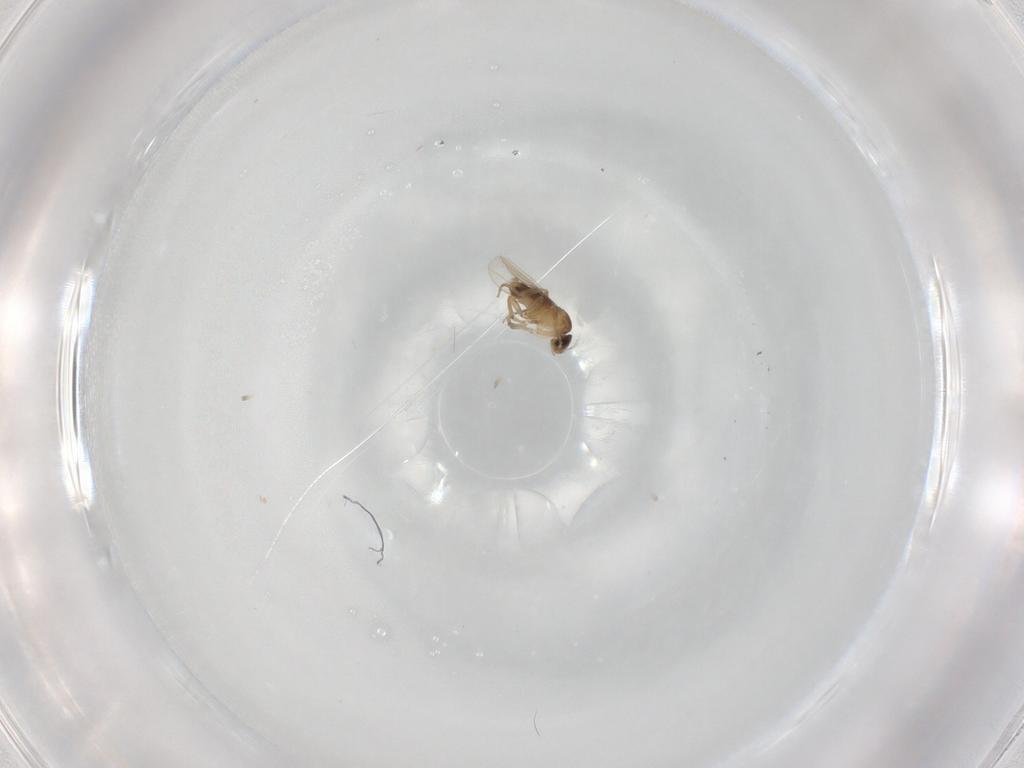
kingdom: Animalia
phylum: Arthropoda
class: Insecta
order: Diptera
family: Phoridae
